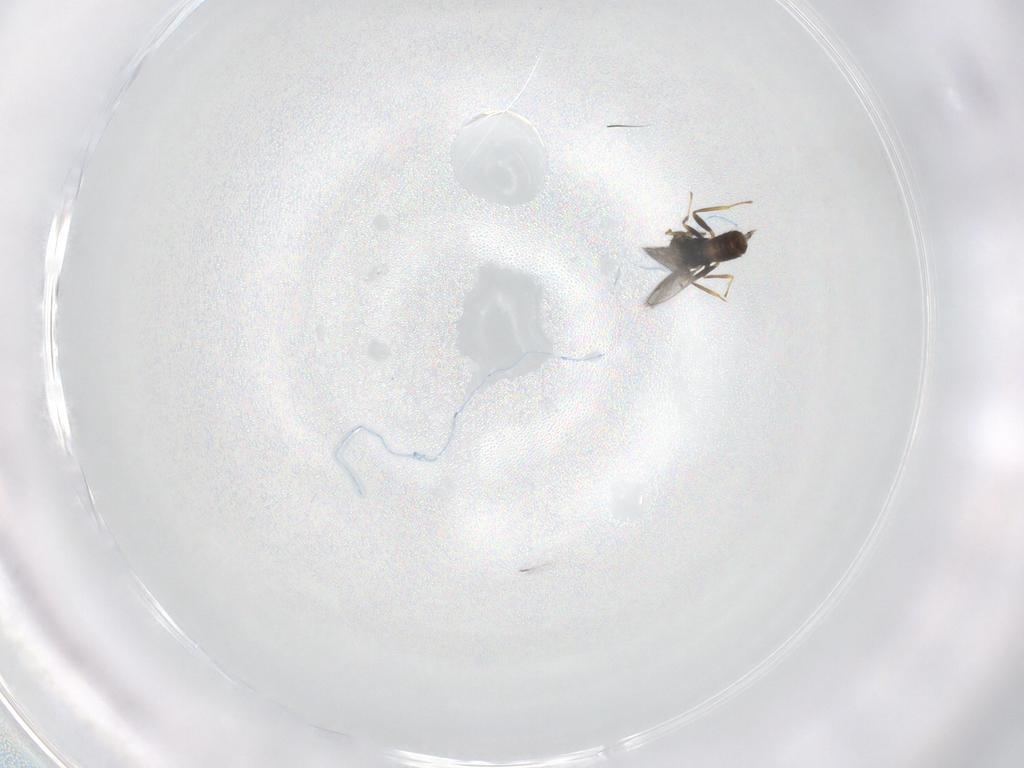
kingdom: Animalia
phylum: Arthropoda
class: Insecta
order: Hymenoptera
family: Eulophidae
